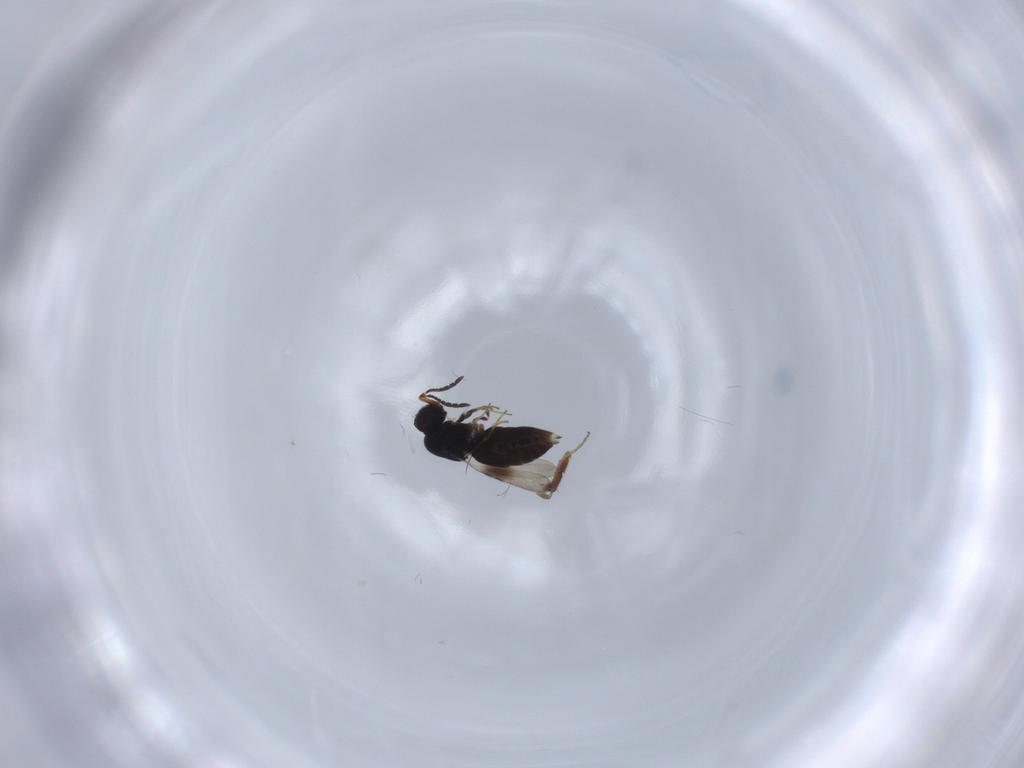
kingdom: Animalia
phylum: Arthropoda
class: Insecta
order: Hymenoptera
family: Braconidae
